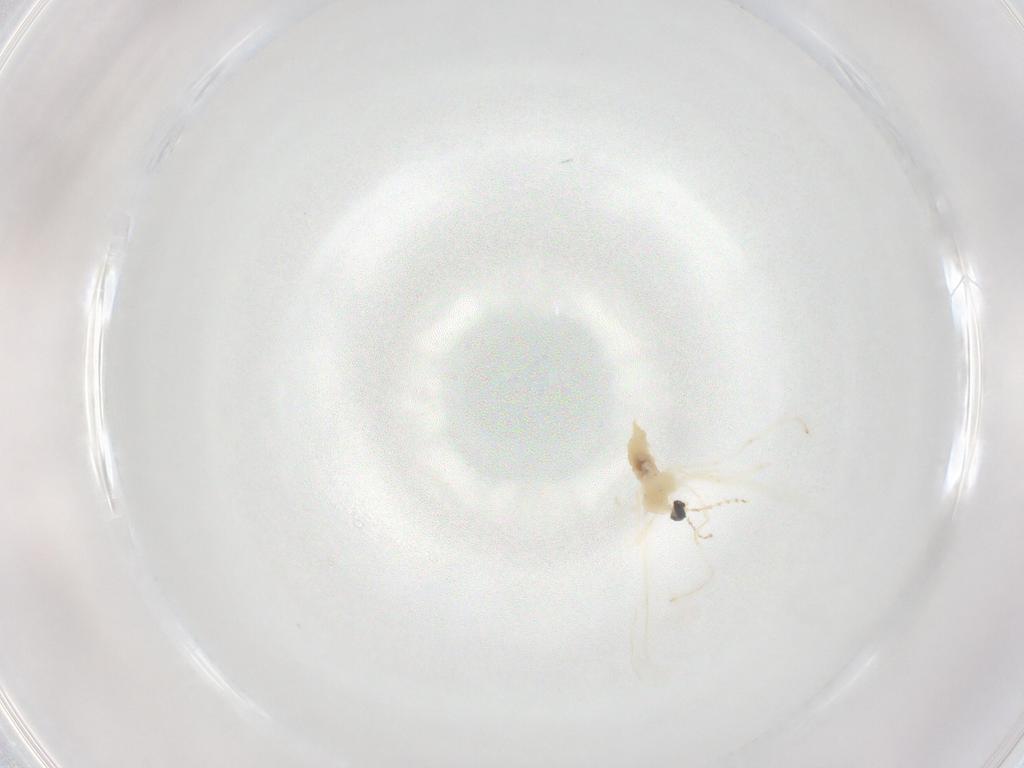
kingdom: Animalia
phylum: Arthropoda
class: Insecta
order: Diptera
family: Cecidomyiidae
